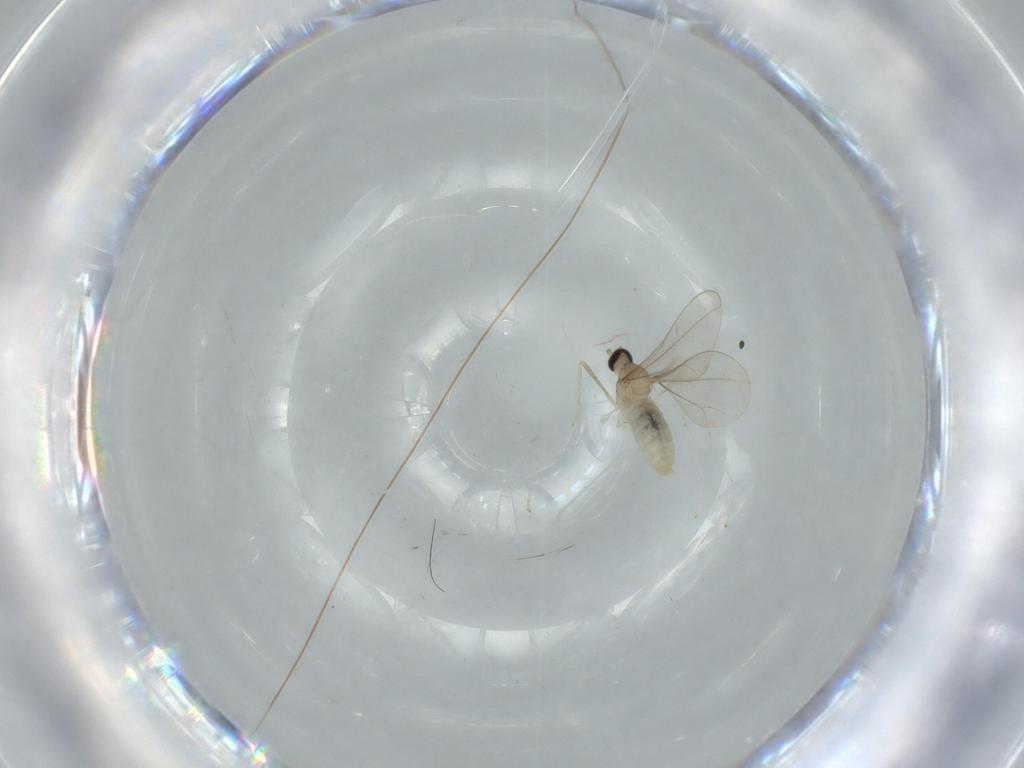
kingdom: Animalia
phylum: Arthropoda
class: Insecta
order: Diptera
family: Cecidomyiidae
